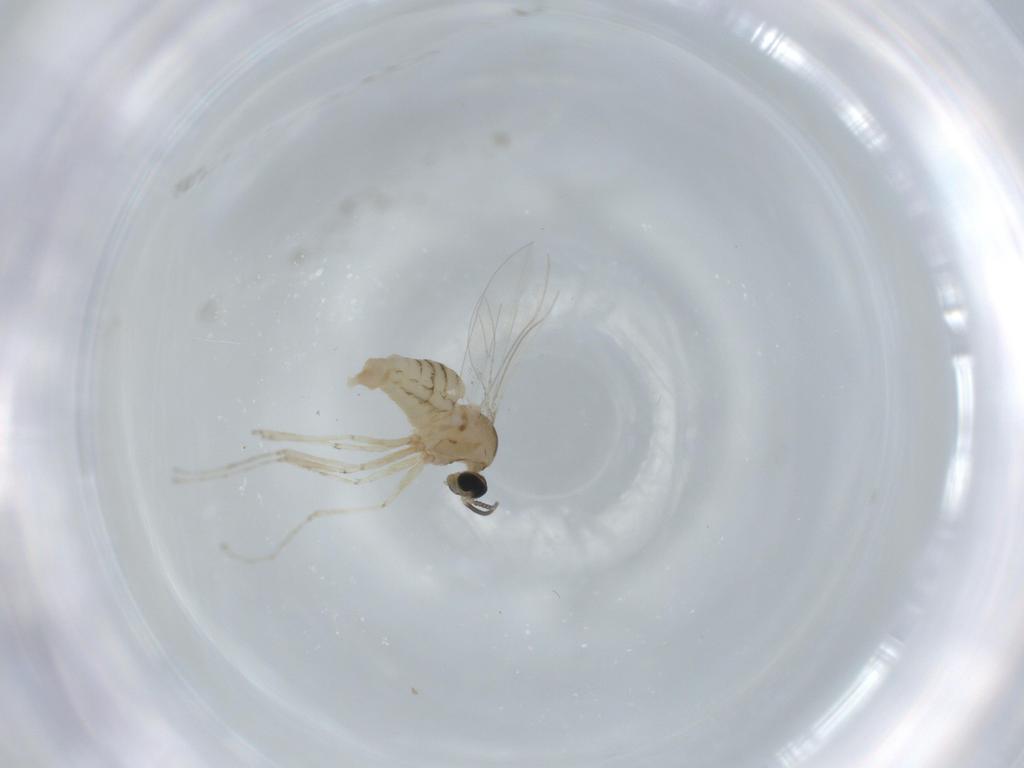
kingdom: Animalia
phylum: Arthropoda
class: Insecta
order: Diptera
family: Cecidomyiidae
